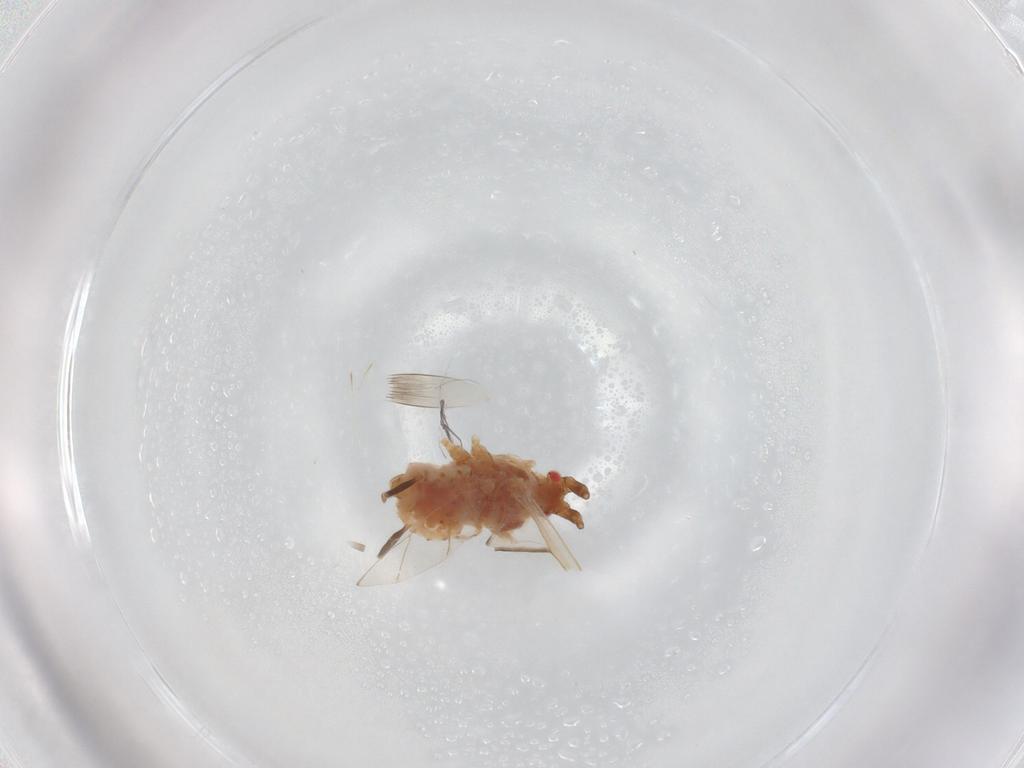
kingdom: Animalia
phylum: Arthropoda
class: Insecta
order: Hemiptera
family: Aphididae
